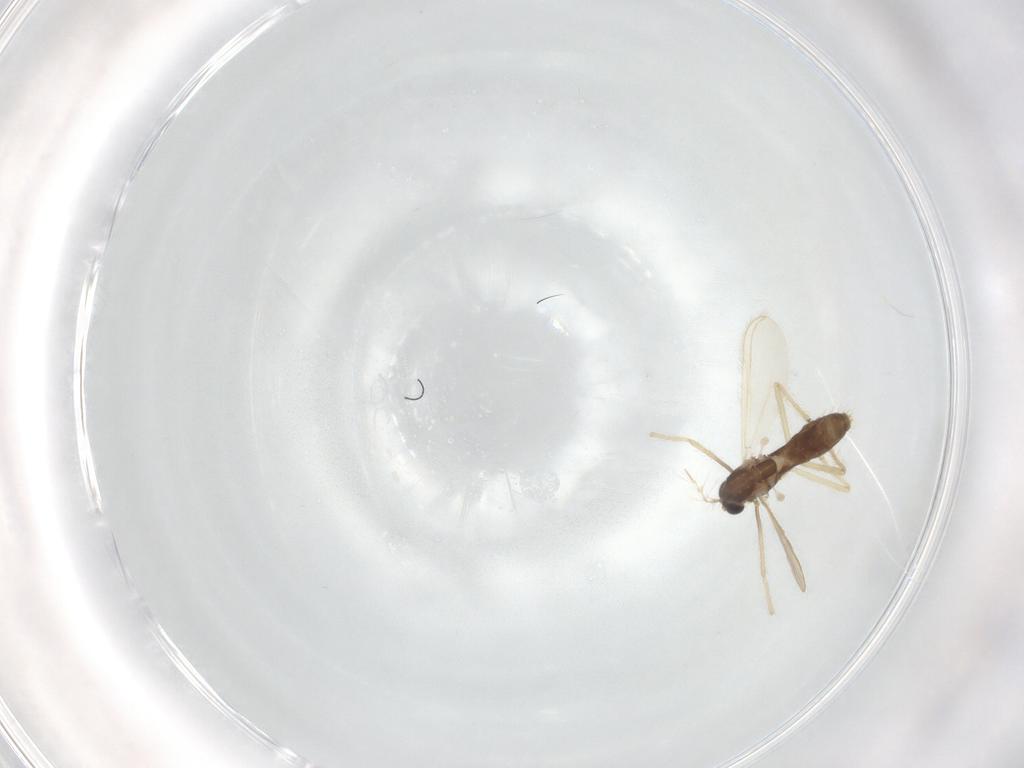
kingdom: Animalia
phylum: Arthropoda
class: Insecta
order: Diptera
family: Chironomidae
